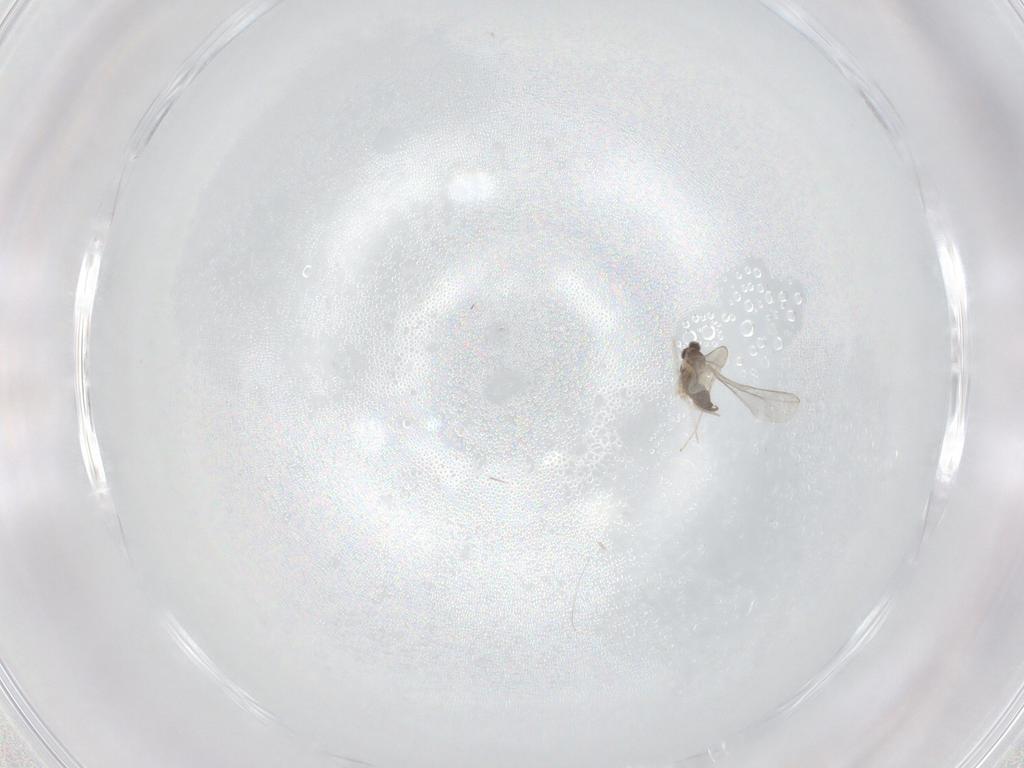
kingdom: Animalia
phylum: Arthropoda
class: Insecta
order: Diptera
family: Cecidomyiidae
